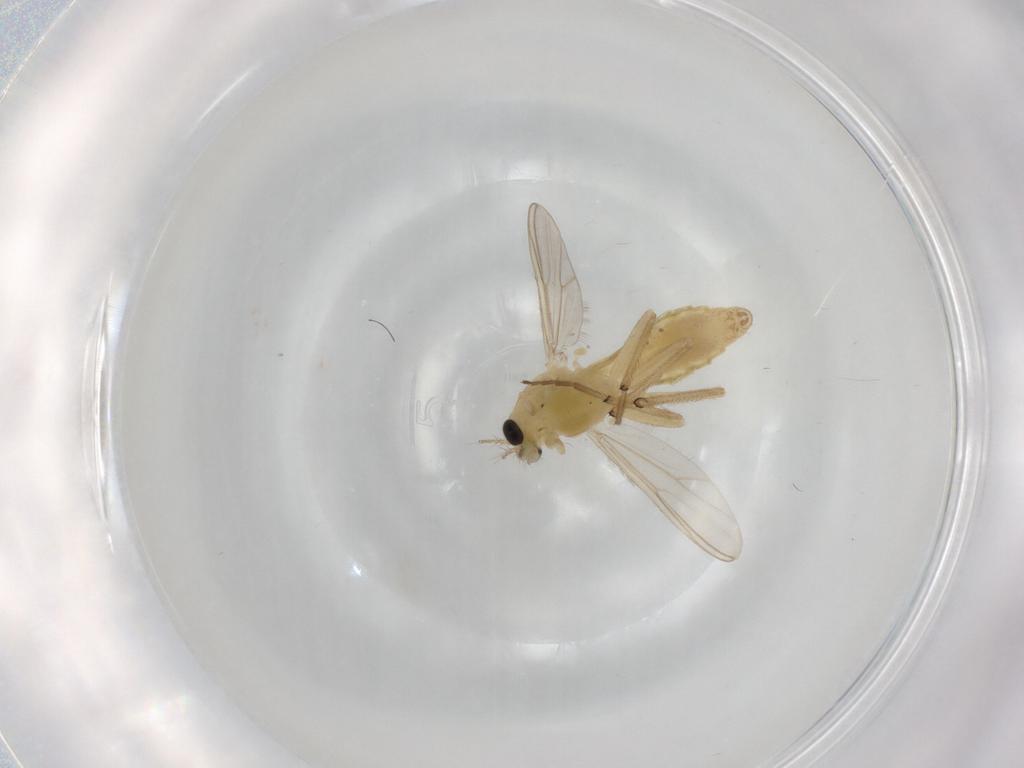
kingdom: Animalia
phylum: Arthropoda
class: Insecta
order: Diptera
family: Chironomidae
